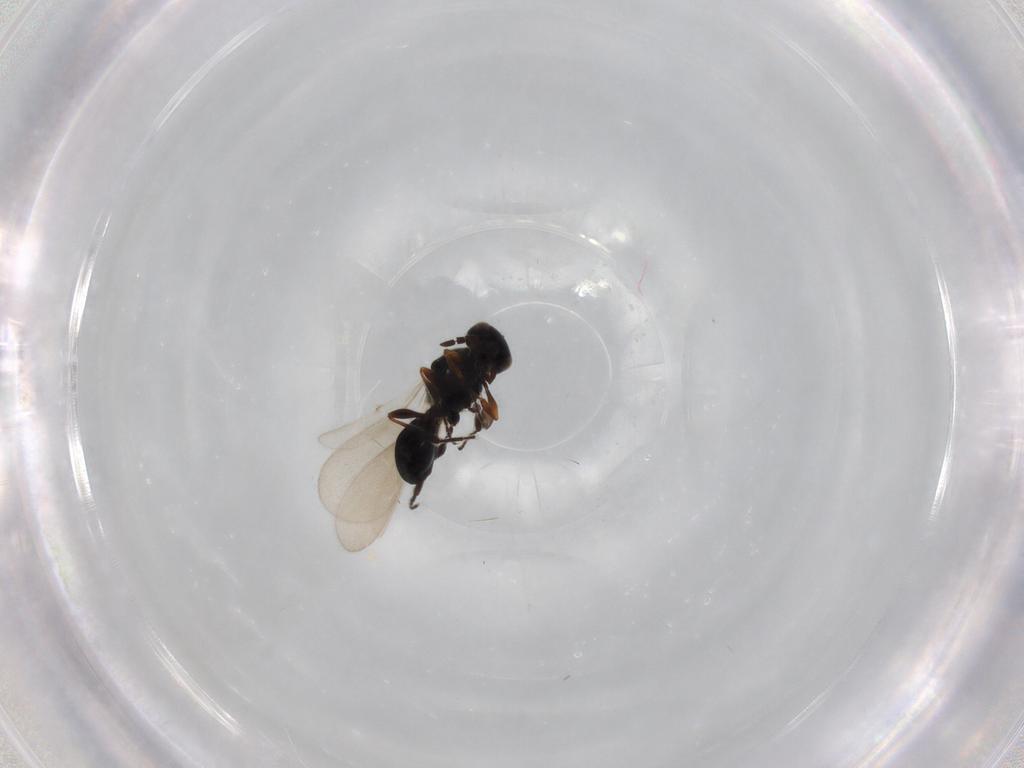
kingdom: Animalia
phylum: Arthropoda
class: Insecta
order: Hymenoptera
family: Platygastridae
